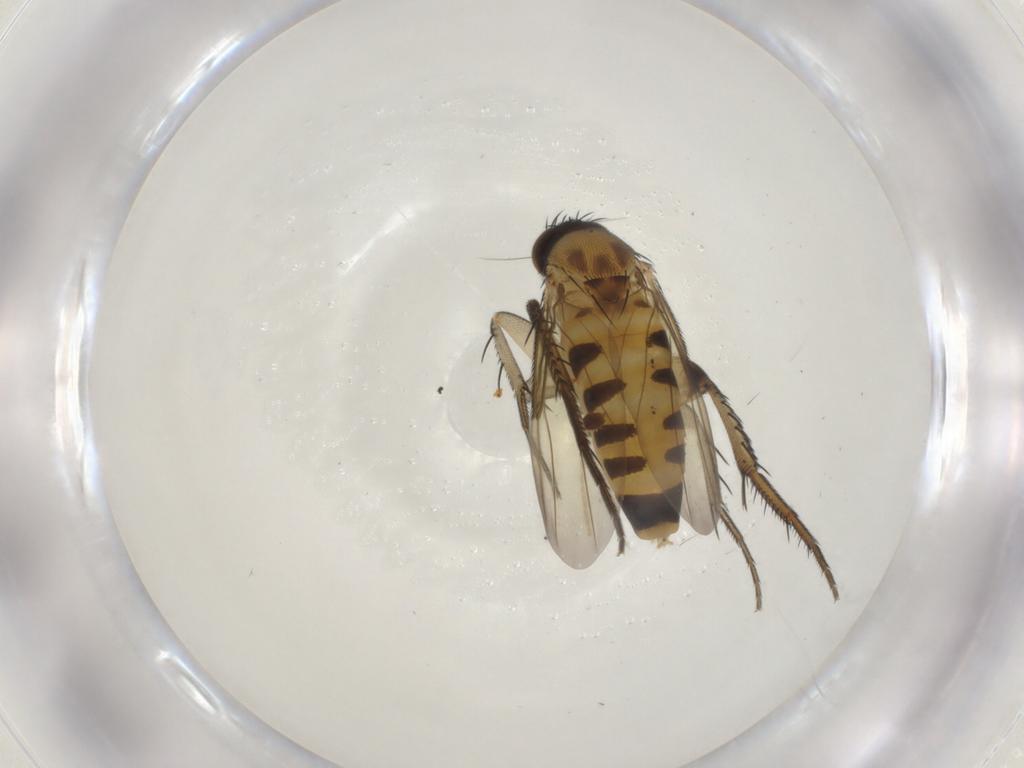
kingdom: Animalia
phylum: Arthropoda
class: Insecta
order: Diptera
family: Phoridae
